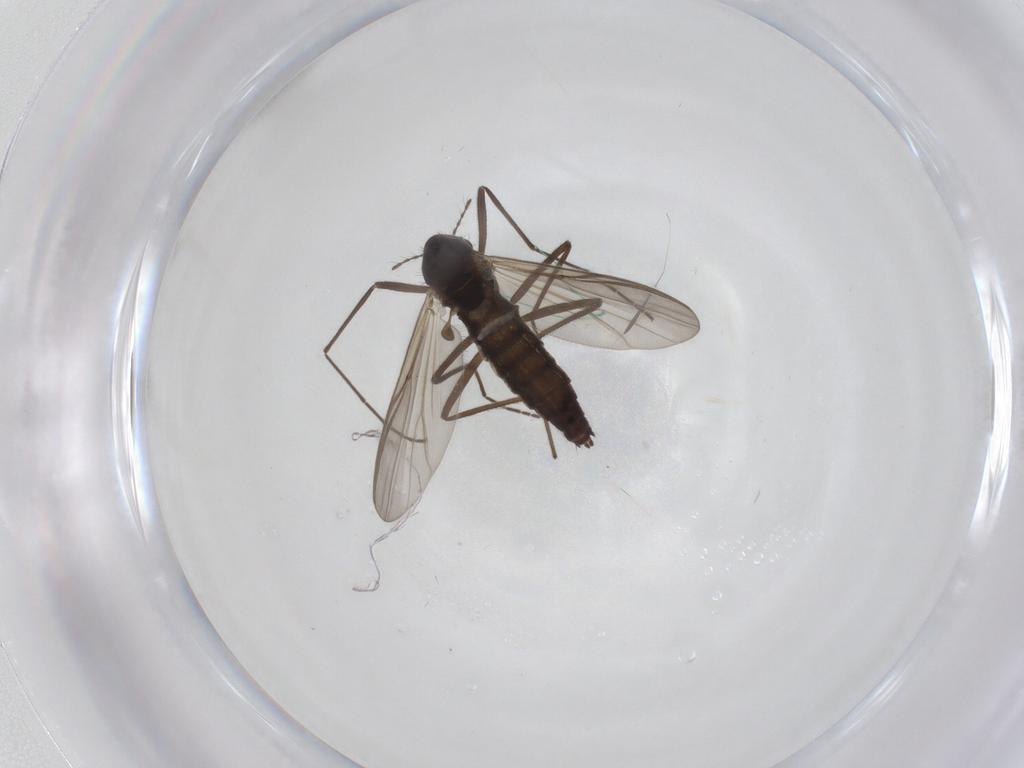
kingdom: Animalia
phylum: Arthropoda
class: Insecta
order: Diptera
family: Chironomidae
